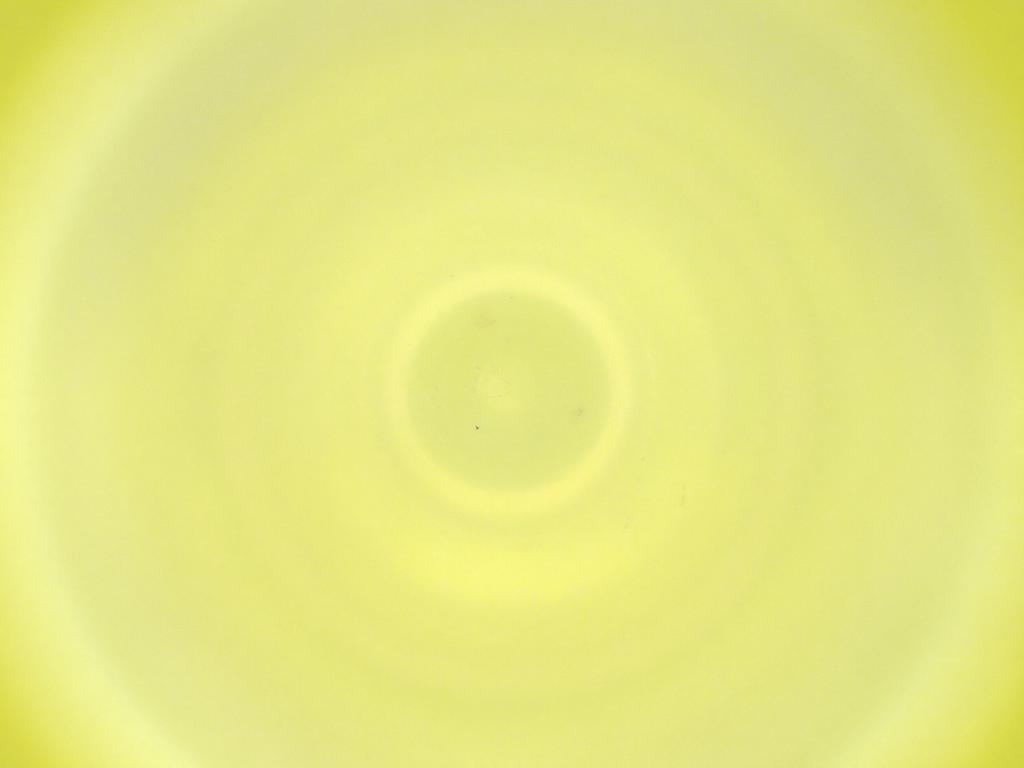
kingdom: Animalia
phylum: Arthropoda
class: Insecta
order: Diptera
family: Cecidomyiidae
